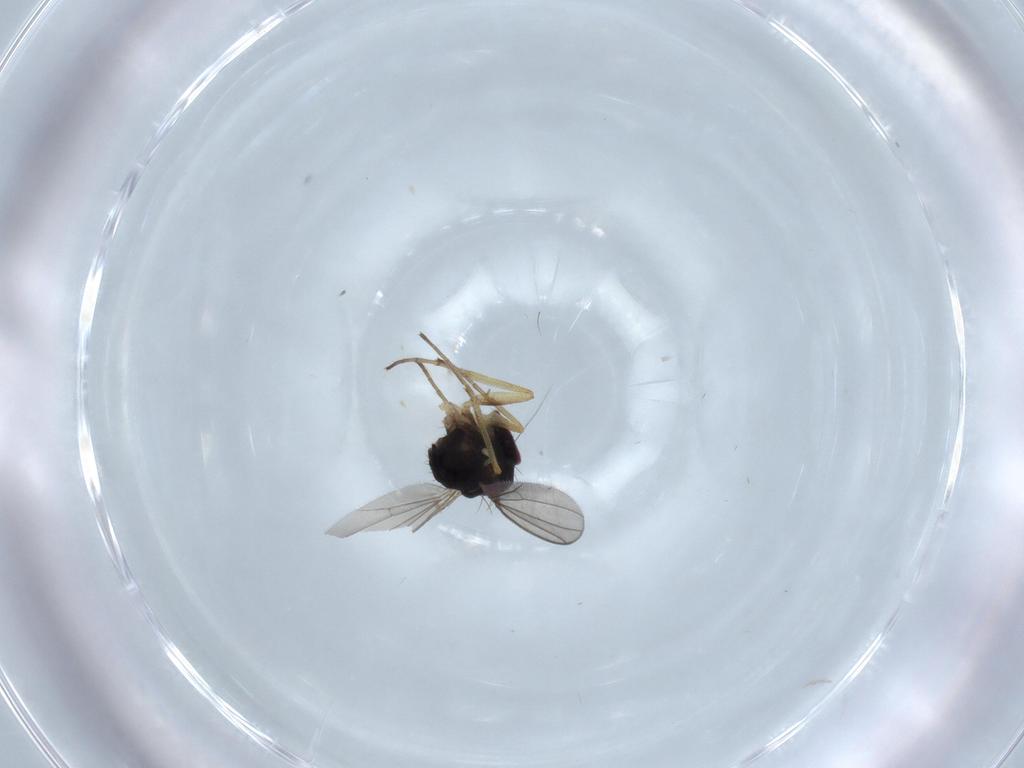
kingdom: Animalia
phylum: Arthropoda
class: Insecta
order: Diptera
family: Dolichopodidae
